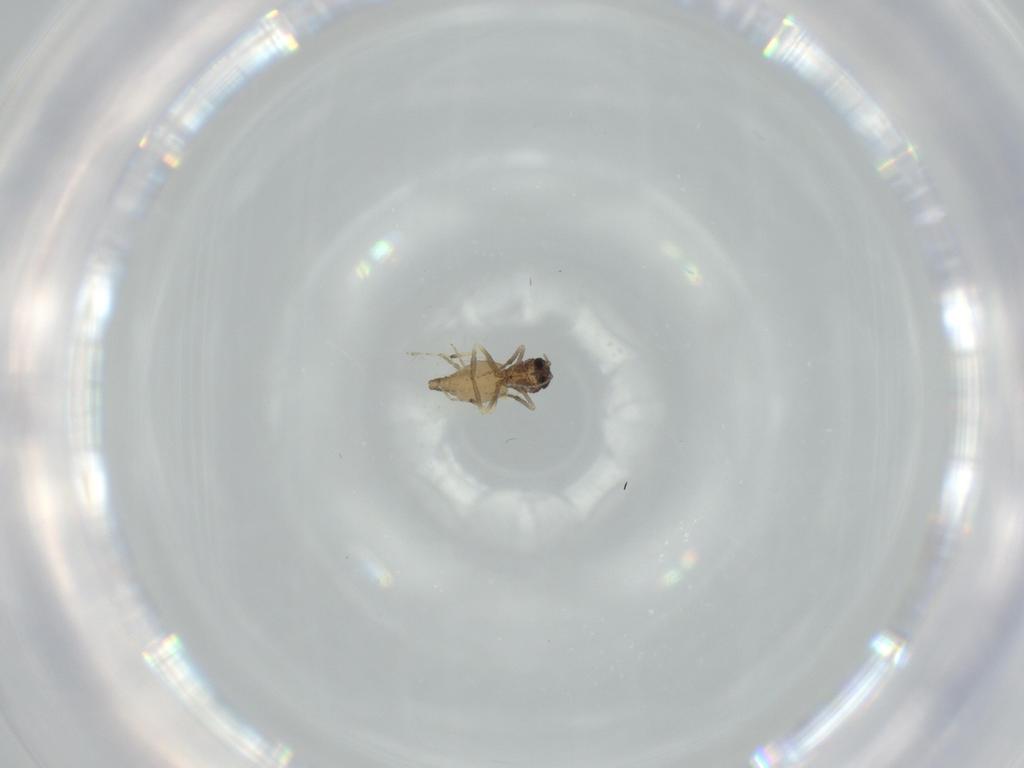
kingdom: Animalia
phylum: Arthropoda
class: Insecta
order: Diptera
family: Ceratopogonidae
